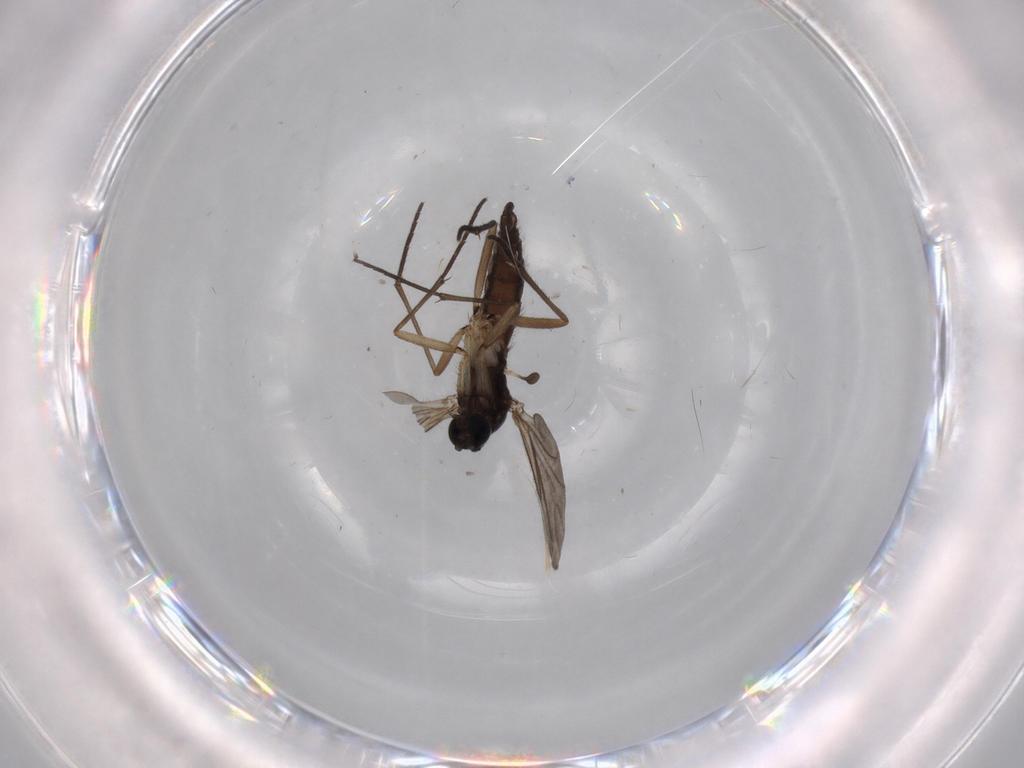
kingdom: Animalia
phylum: Arthropoda
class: Insecta
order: Diptera
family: Sciaridae
